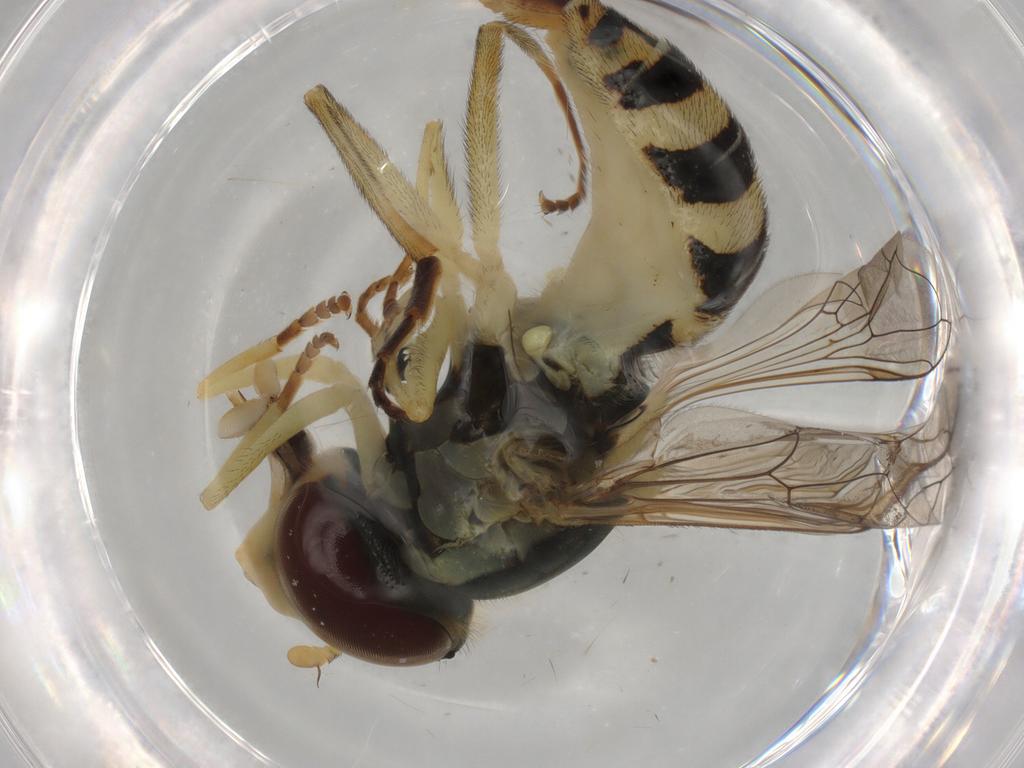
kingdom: Animalia
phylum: Arthropoda
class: Insecta
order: Diptera
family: Syrphidae
